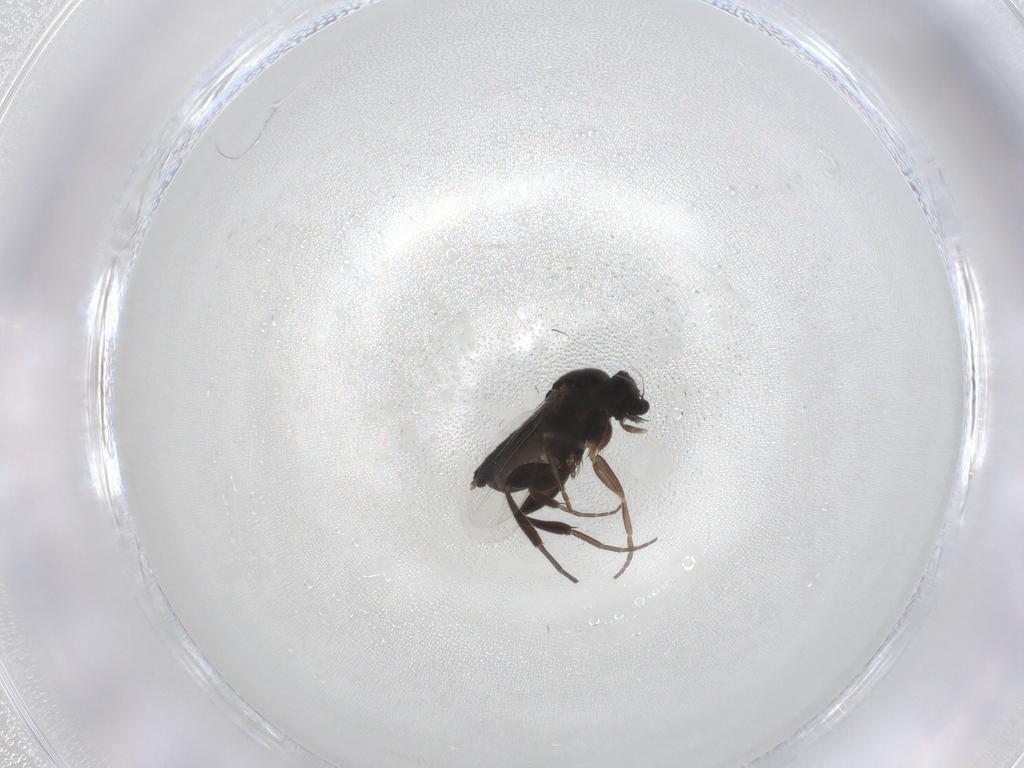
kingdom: Animalia
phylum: Arthropoda
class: Insecta
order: Diptera
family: Phoridae
